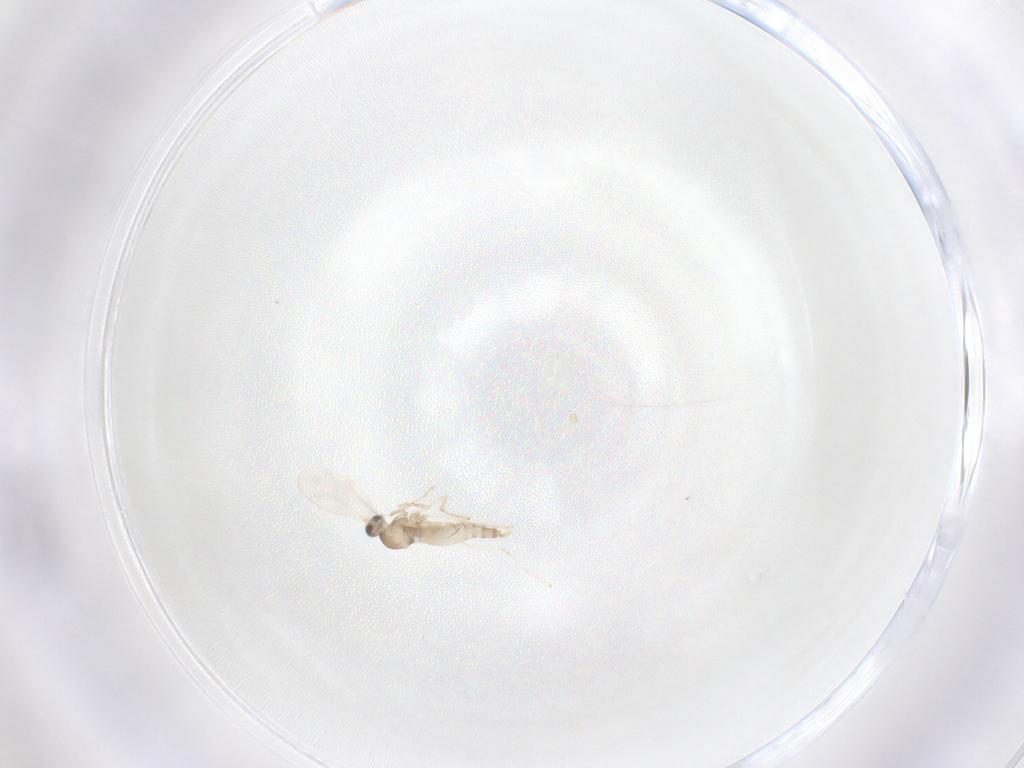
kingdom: Animalia
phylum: Arthropoda
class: Insecta
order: Lepidoptera
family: Tortricidae
